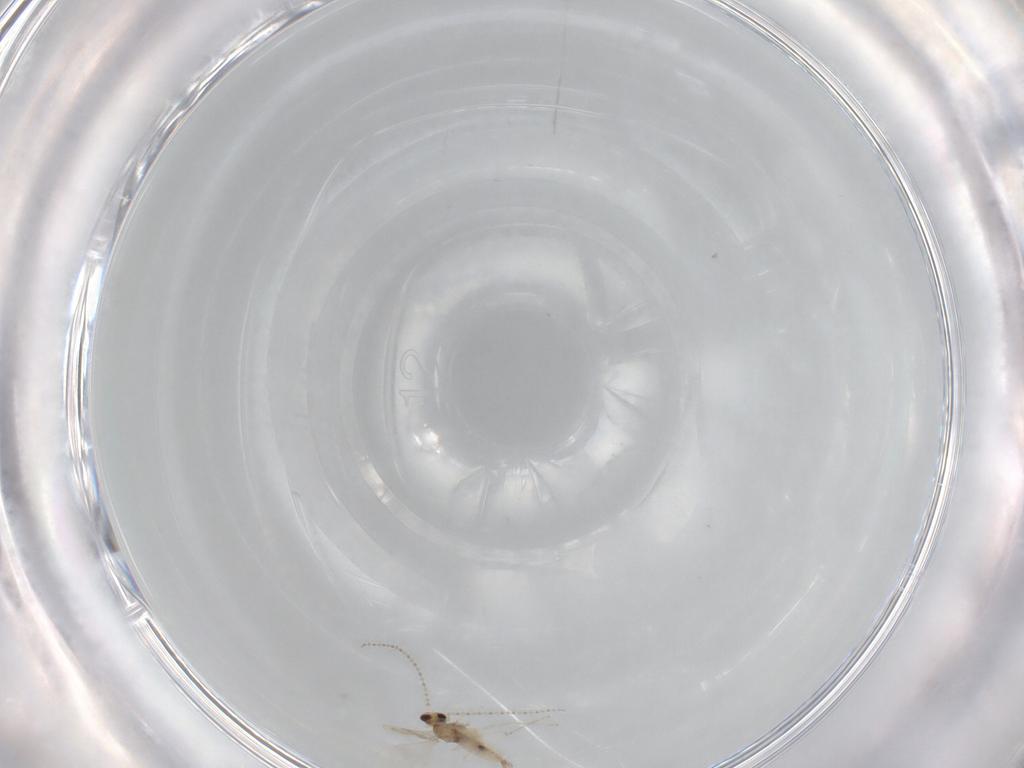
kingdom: Animalia
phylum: Arthropoda
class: Insecta
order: Diptera
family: Cecidomyiidae
